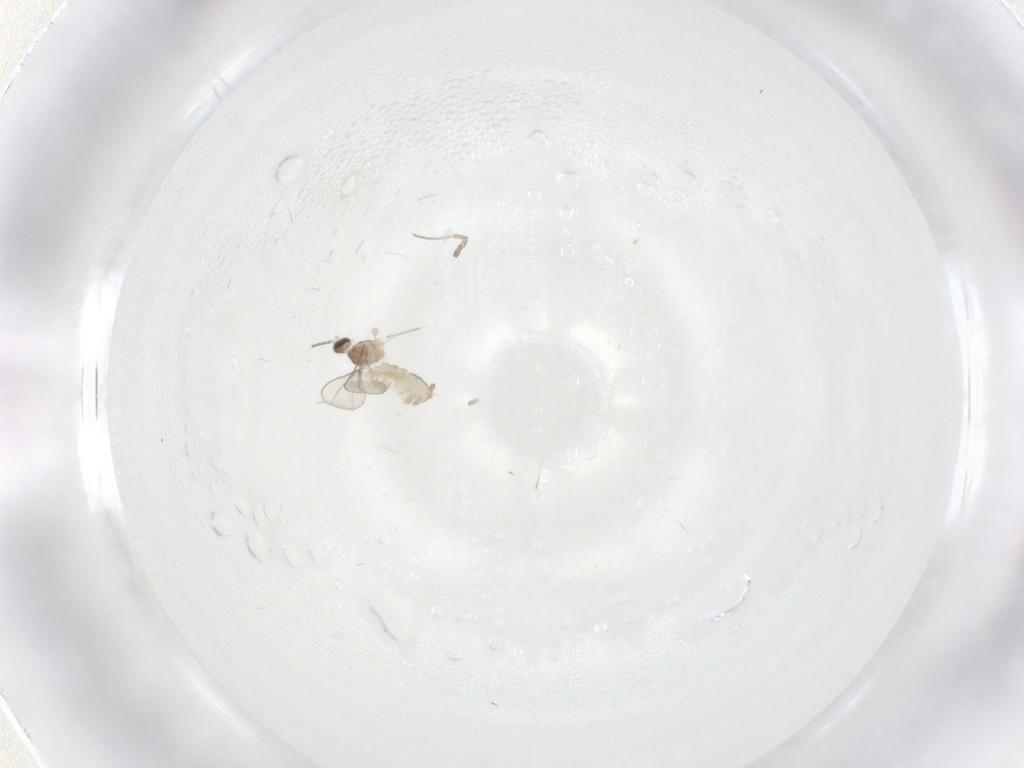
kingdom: Animalia
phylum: Arthropoda
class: Insecta
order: Diptera
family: Cecidomyiidae
